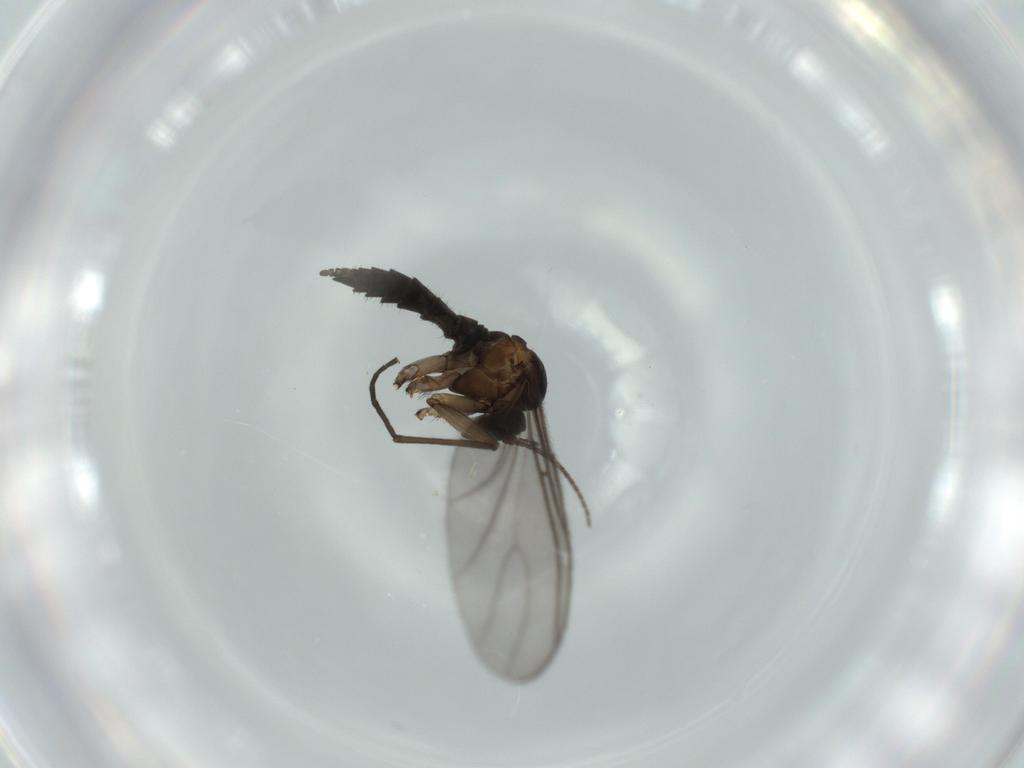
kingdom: Animalia
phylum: Arthropoda
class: Insecta
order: Diptera
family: Sciaridae
